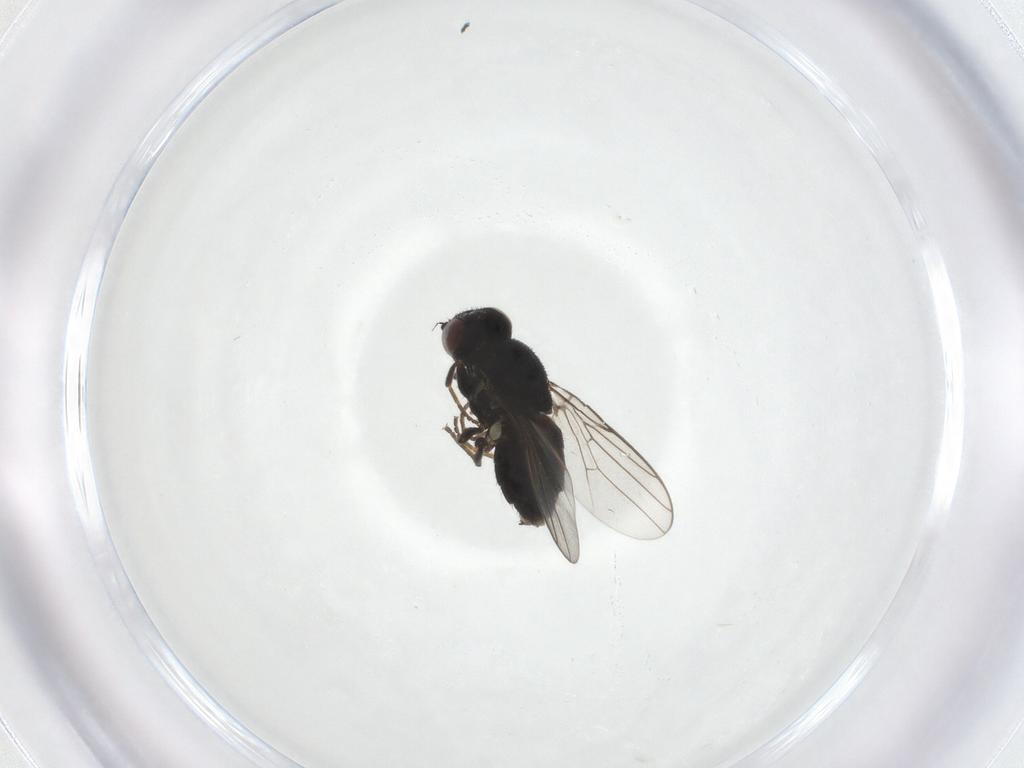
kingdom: Animalia
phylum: Arthropoda
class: Insecta
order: Diptera
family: Chloropidae
